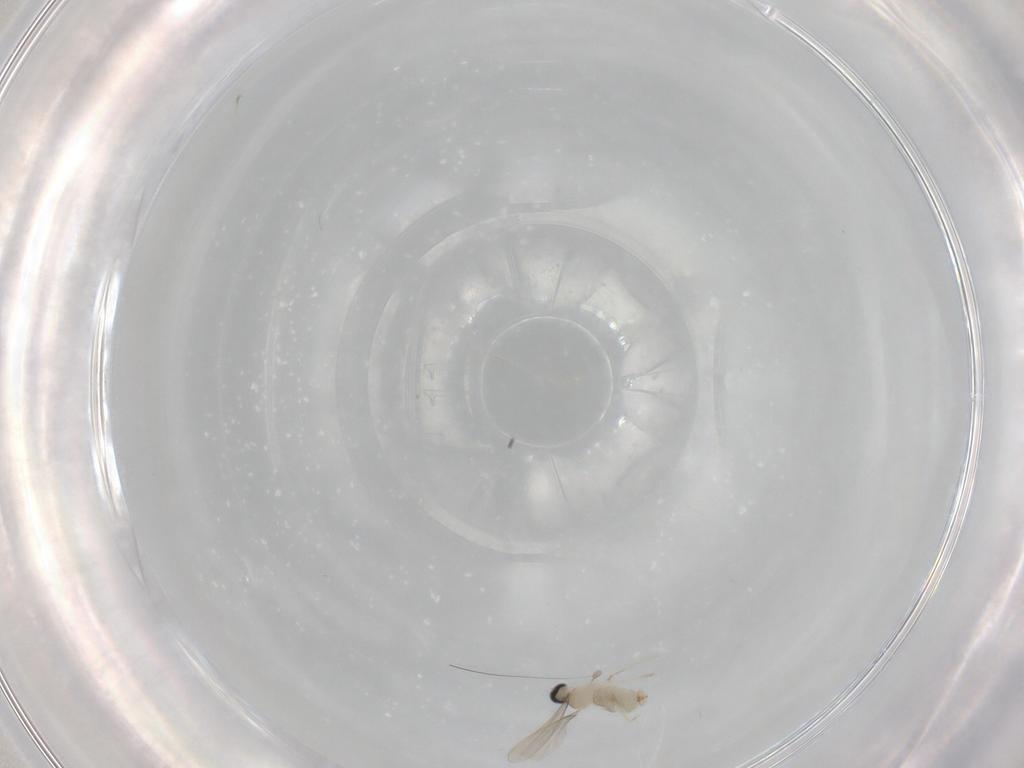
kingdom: Animalia
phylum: Arthropoda
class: Insecta
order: Diptera
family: Cecidomyiidae
